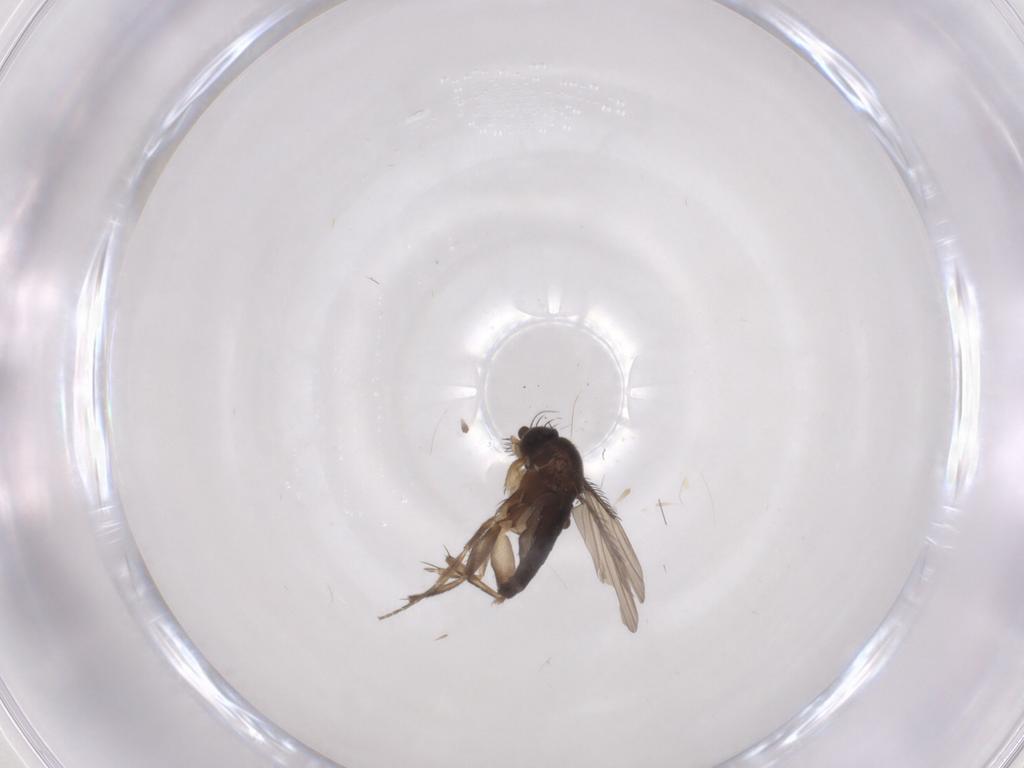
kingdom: Animalia
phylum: Arthropoda
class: Insecta
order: Diptera
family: Phoridae
